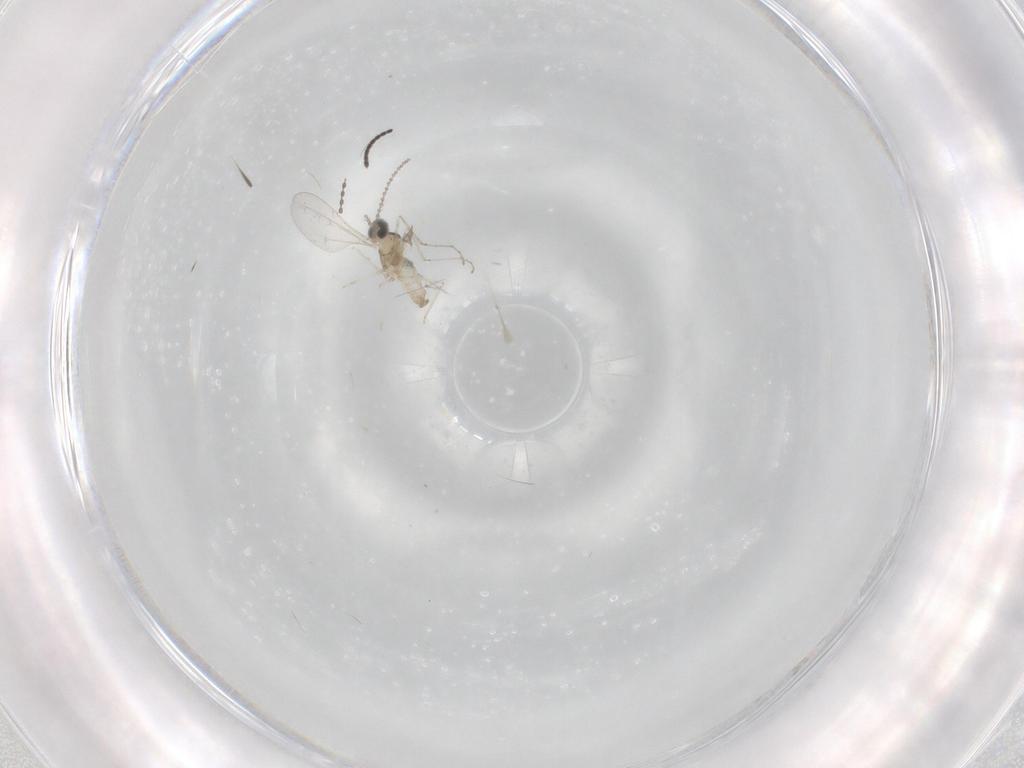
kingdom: Animalia
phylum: Arthropoda
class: Insecta
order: Diptera
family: Cecidomyiidae
